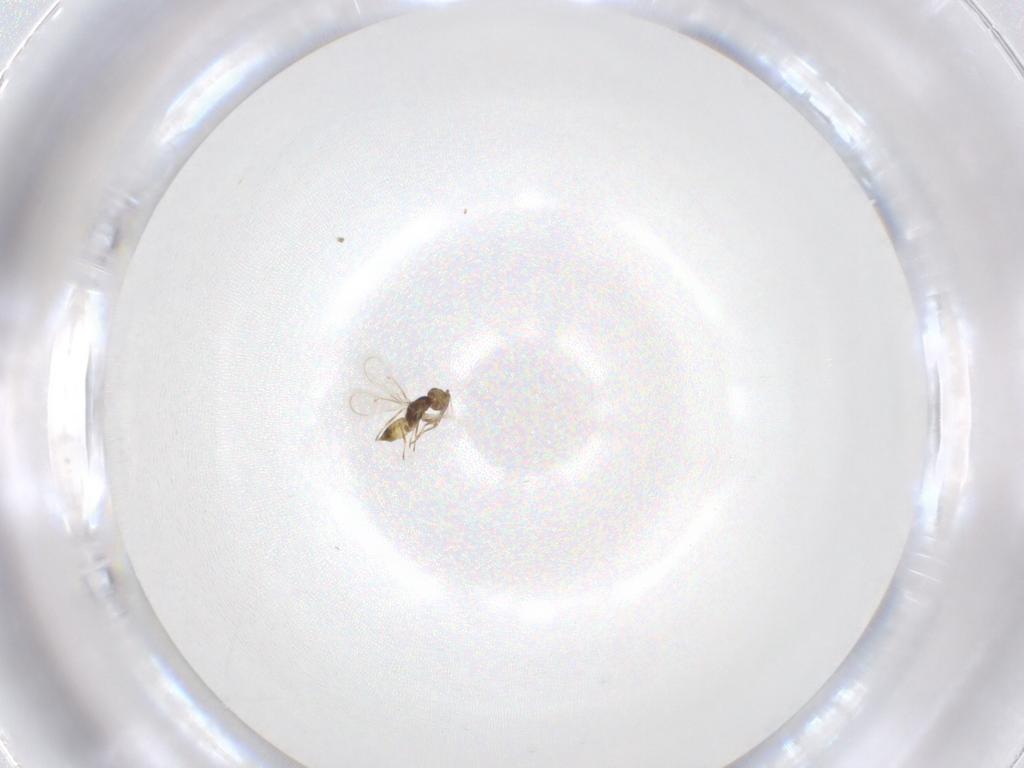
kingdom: Animalia
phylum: Arthropoda
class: Insecta
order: Hymenoptera
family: Eulophidae
